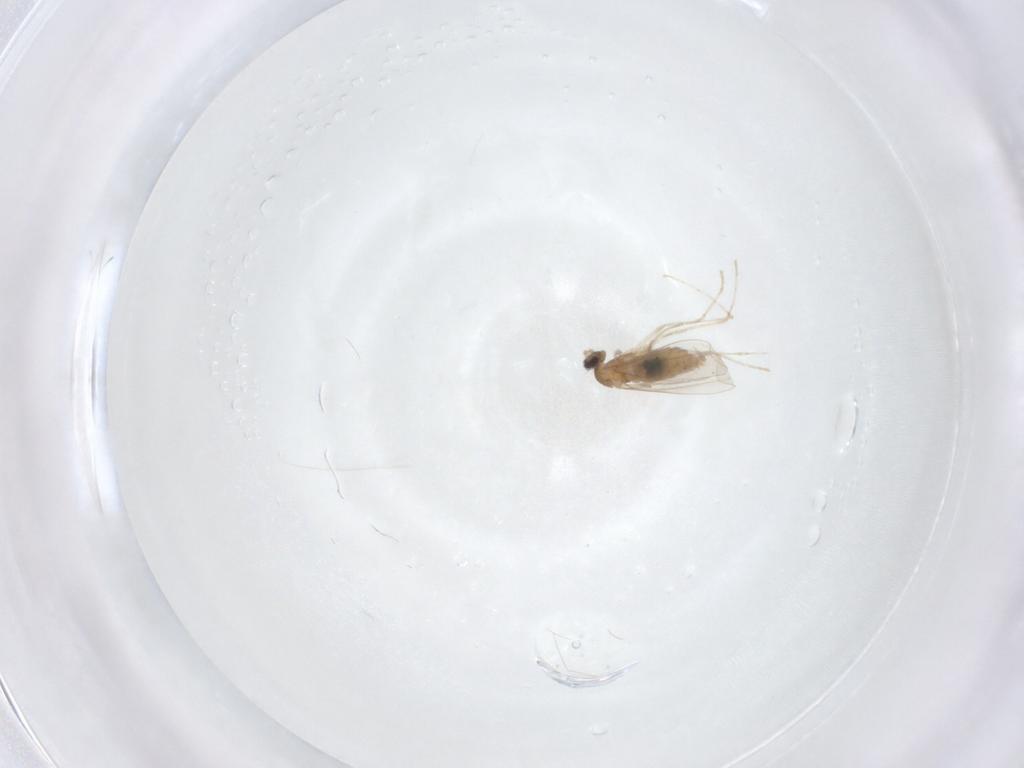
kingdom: Animalia
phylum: Arthropoda
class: Insecta
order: Diptera
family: Cecidomyiidae
